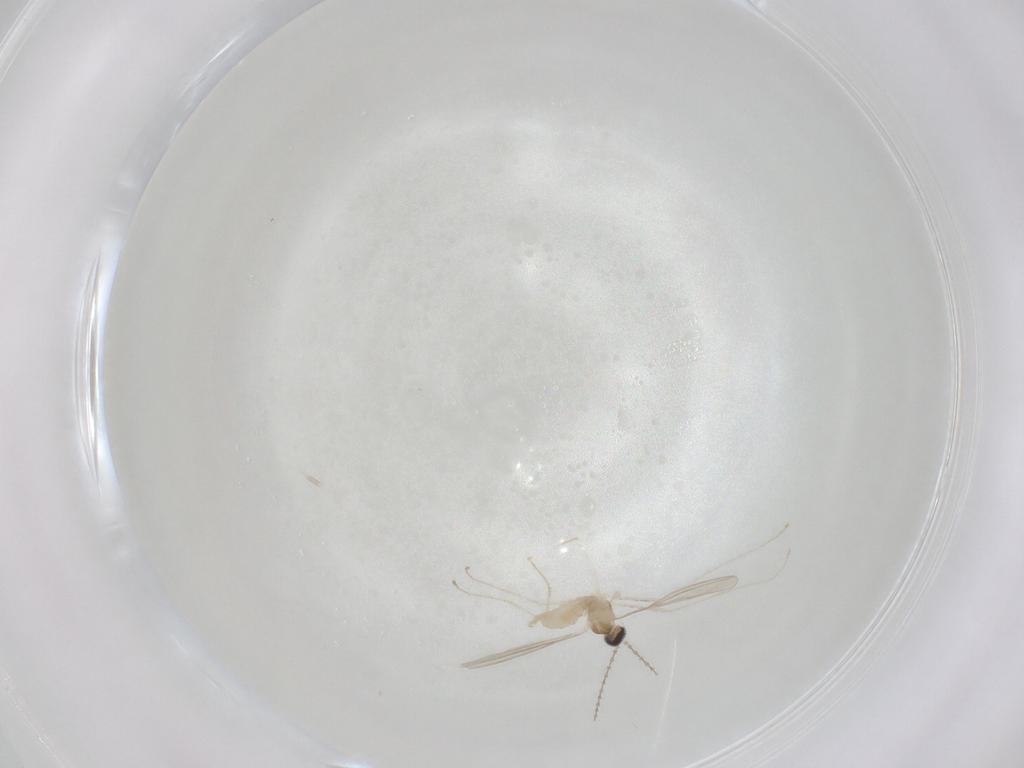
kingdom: Animalia
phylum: Arthropoda
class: Insecta
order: Diptera
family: Cecidomyiidae
